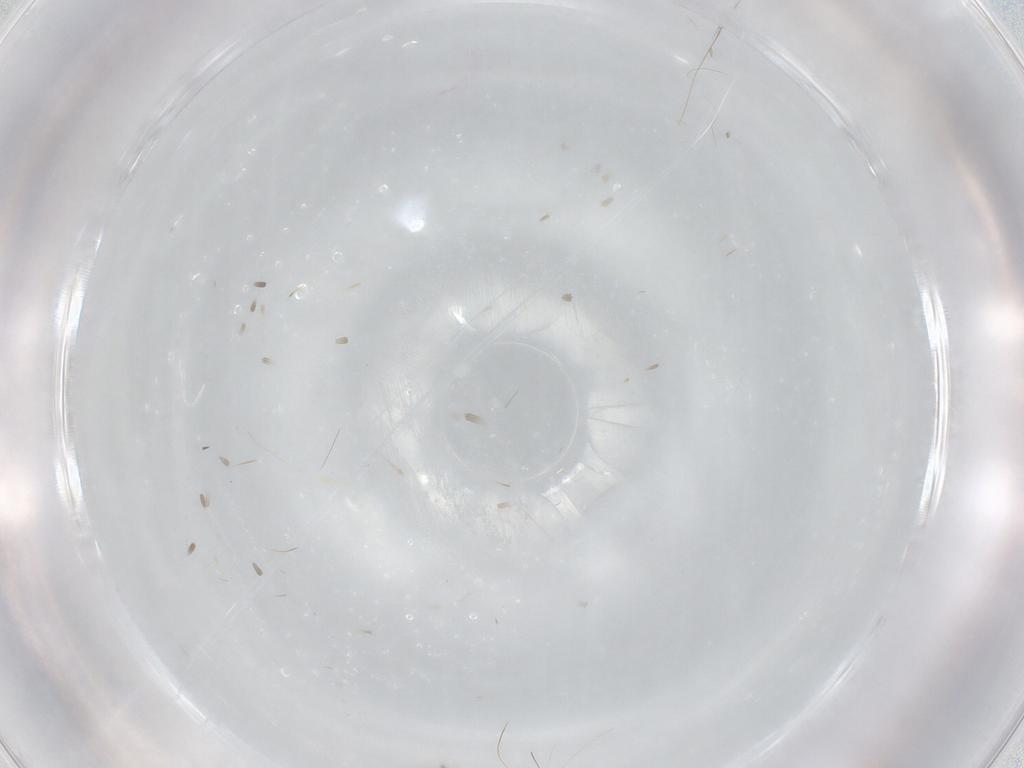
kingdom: Animalia
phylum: Arthropoda
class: Insecta
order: Diptera
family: Cecidomyiidae
